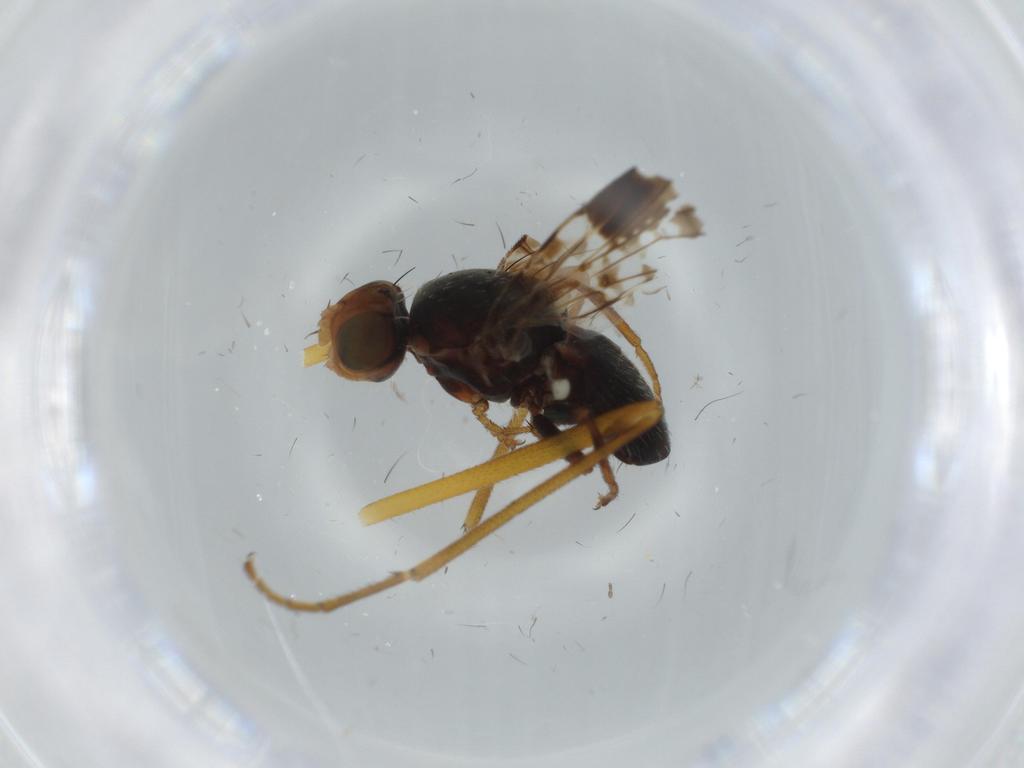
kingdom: Animalia
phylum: Arthropoda
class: Insecta
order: Diptera
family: Tephritidae
